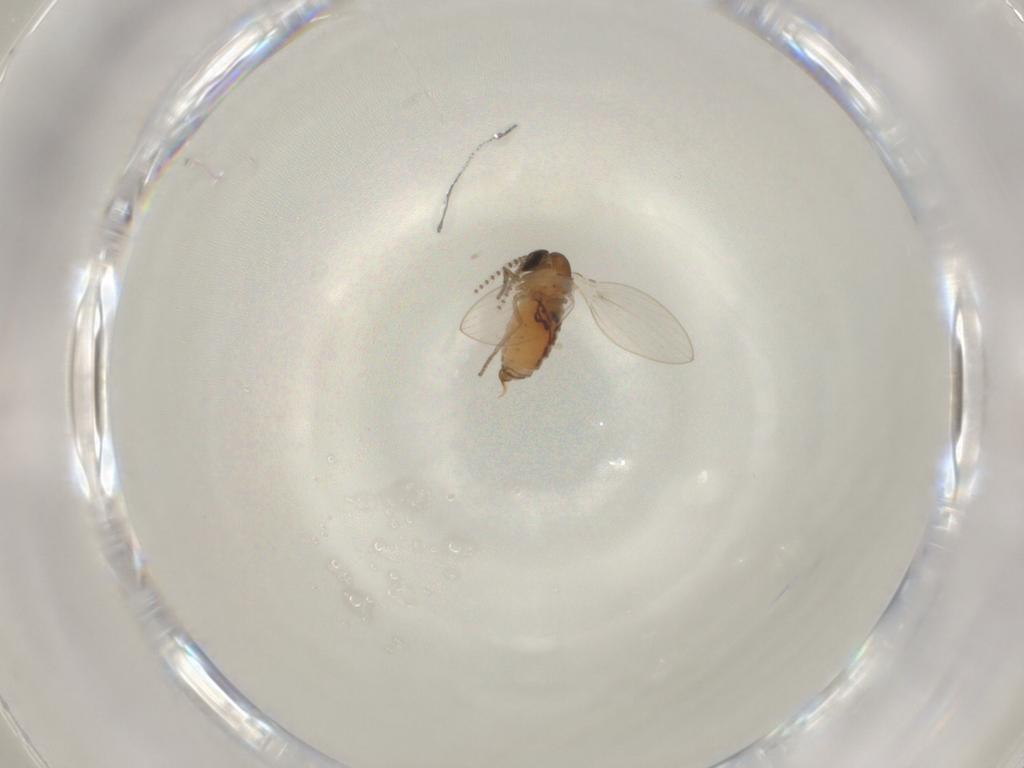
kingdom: Animalia
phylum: Arthropoda
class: Insecta
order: Diptera
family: Psychodidae
